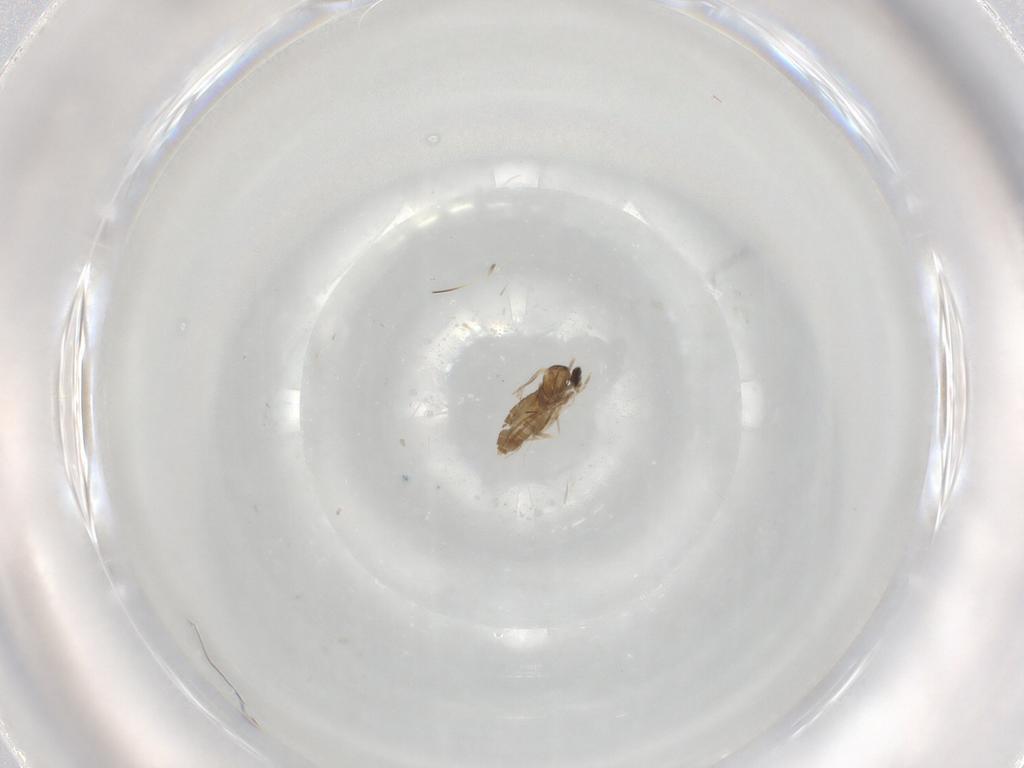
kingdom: Animalia
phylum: Arthropoda
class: Insecta
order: Diptera
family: Cecidomyiidae
